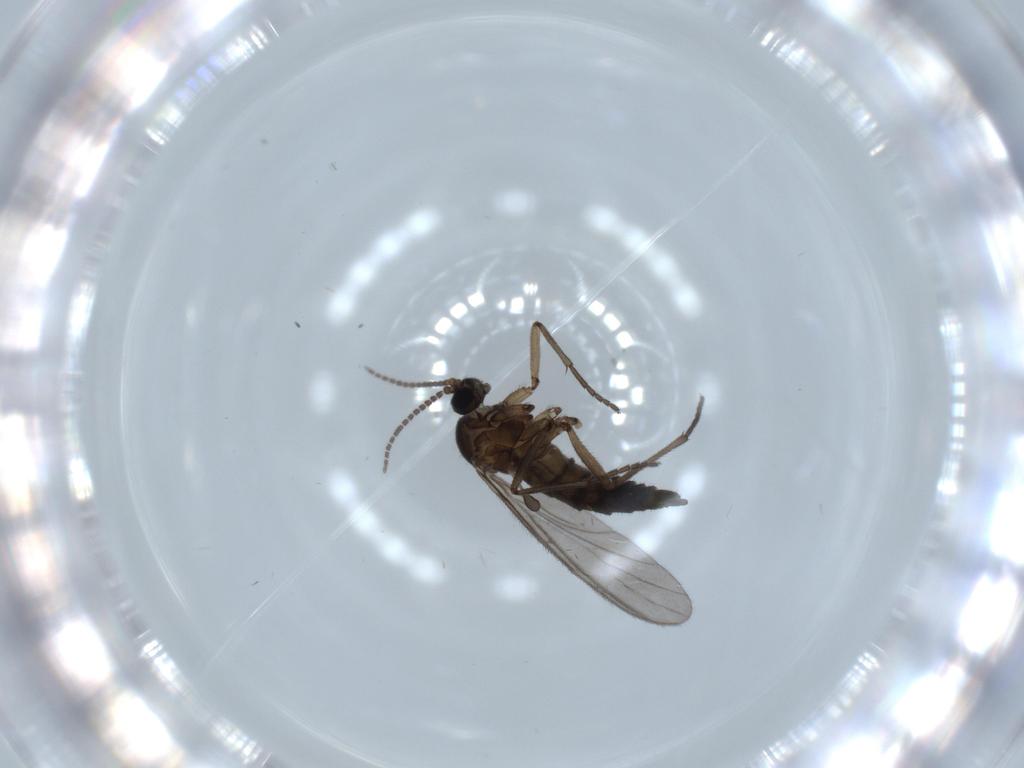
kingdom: Animalia
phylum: Arthropoda
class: Insecta
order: Diptera
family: Sciaridae
